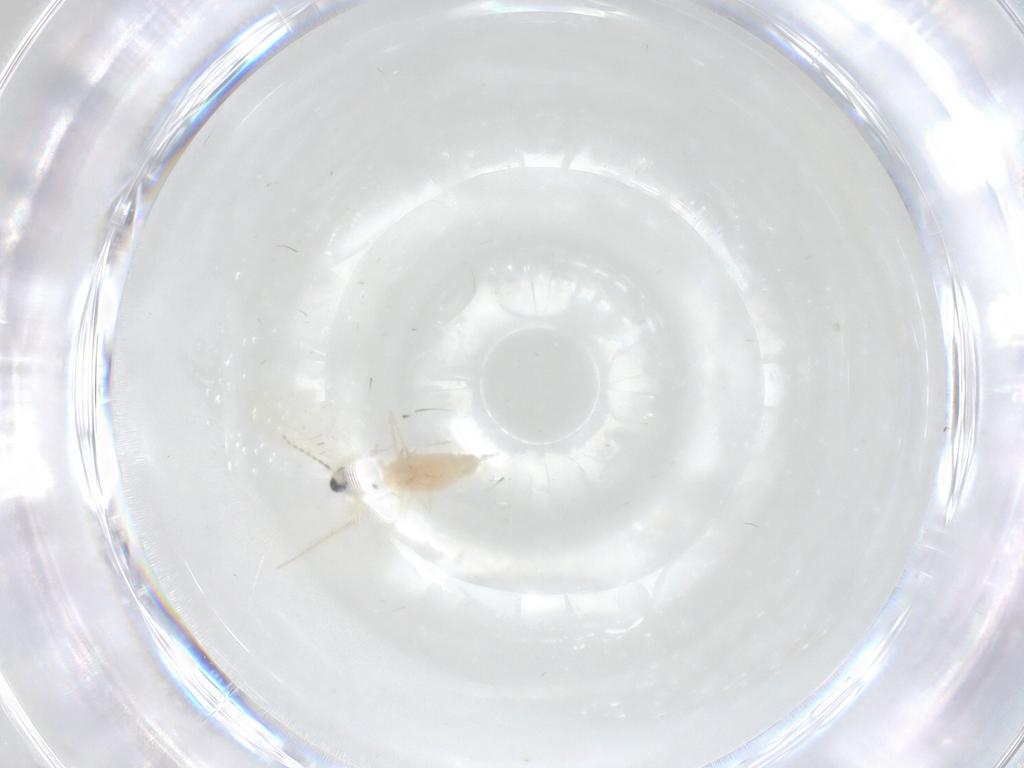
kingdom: Animalia
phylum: Arthropoda
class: Insecta
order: Diptera
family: Cecidomyiidae
